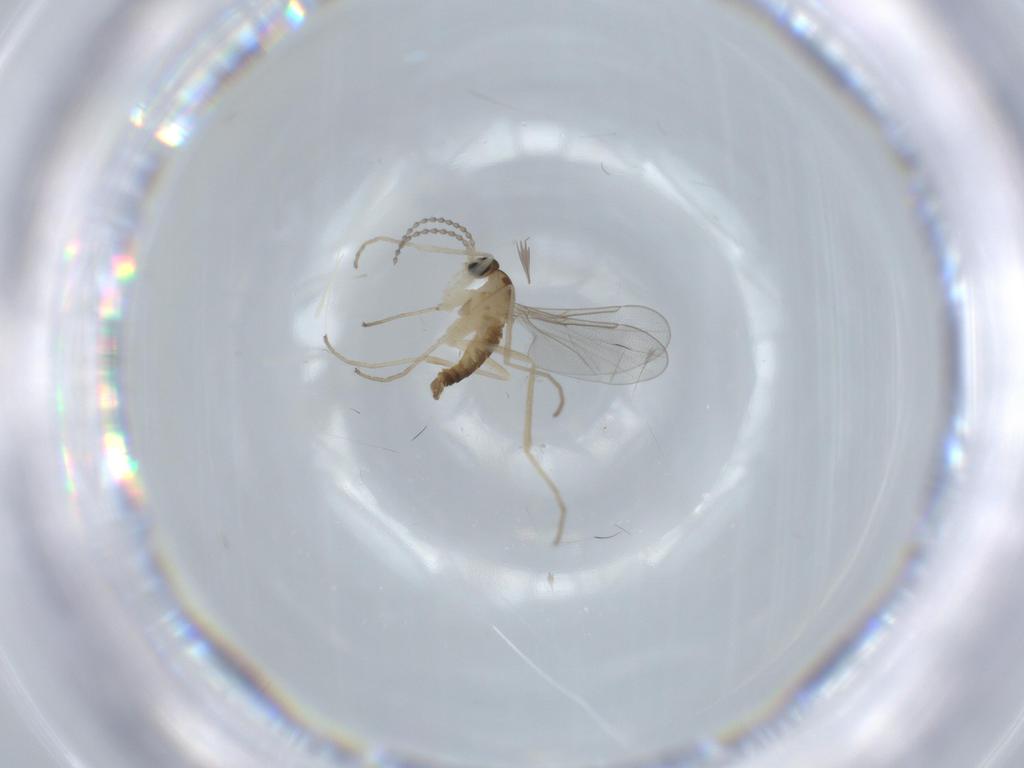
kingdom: Animalia
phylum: Arthropoda
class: Insecta
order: Diptera
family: Cecidomyiidae
